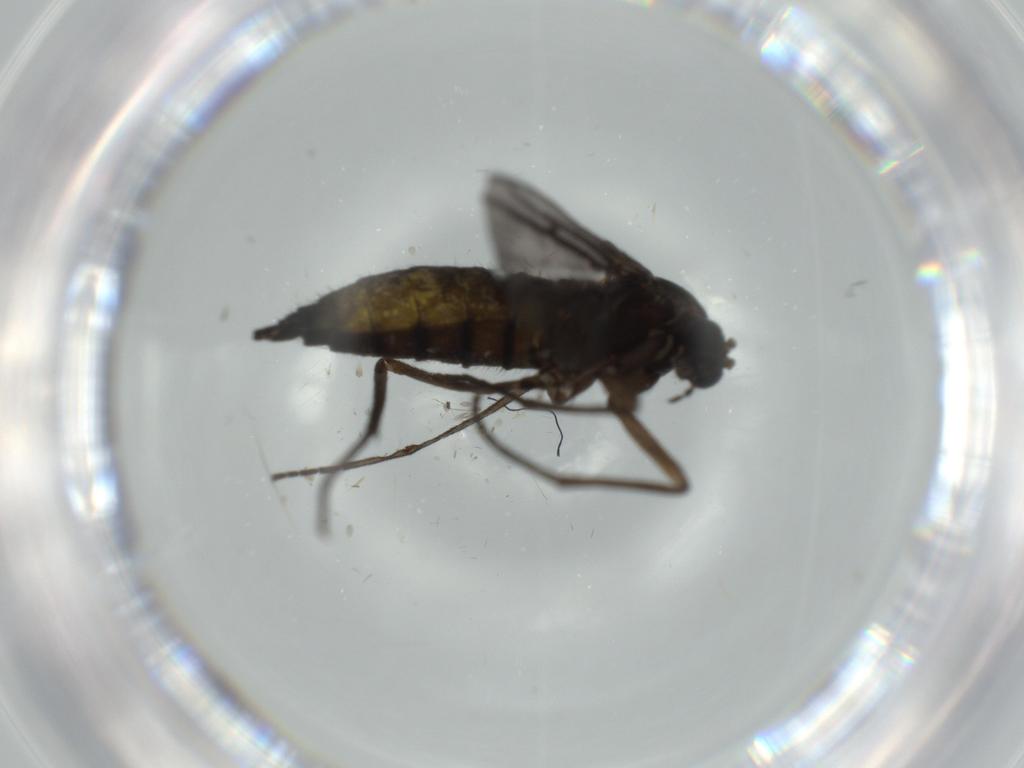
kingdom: Animalia
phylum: Arthropoda
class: Insecta
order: Diptera
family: Sciaridae
